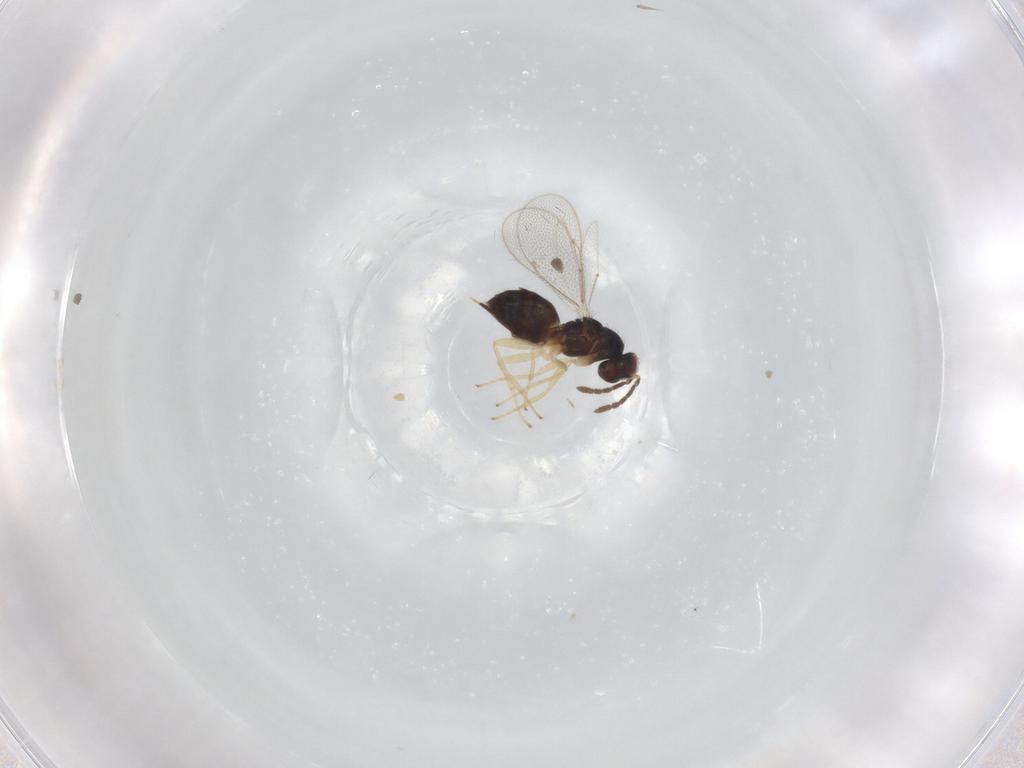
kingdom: Animalia
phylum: Arthropoda
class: Insecta
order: Hymenoptera
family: Eulophidae
